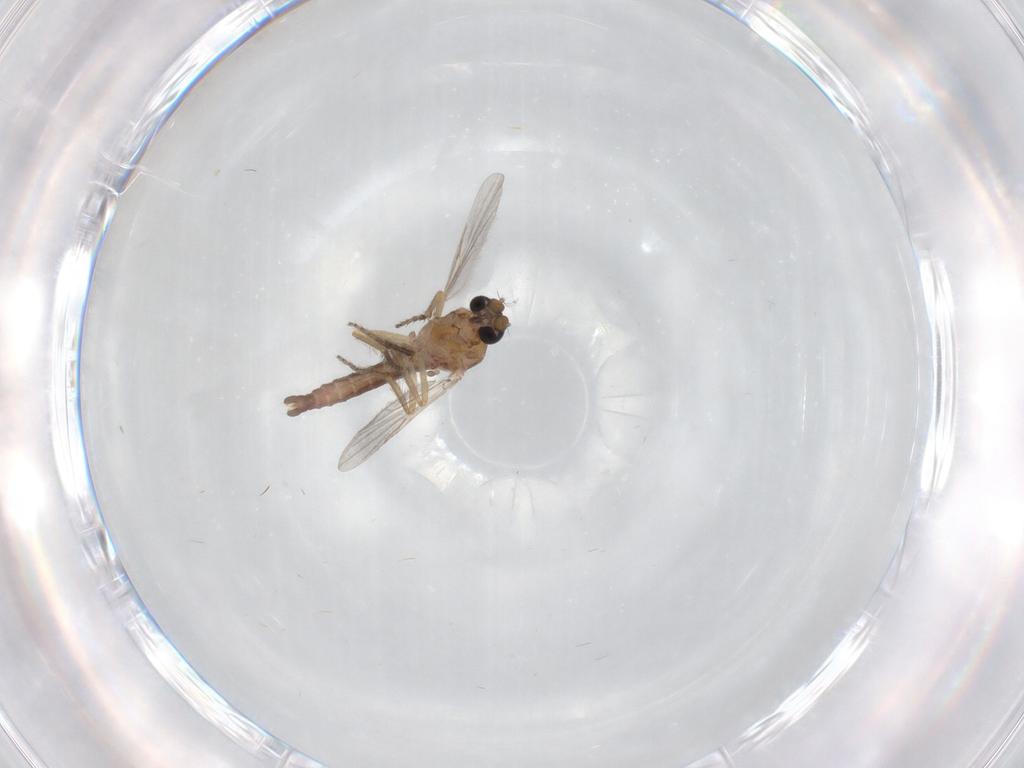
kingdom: Animalia
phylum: Arthropoda
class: Insecta
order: Diptera
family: Ceratopogonidae
